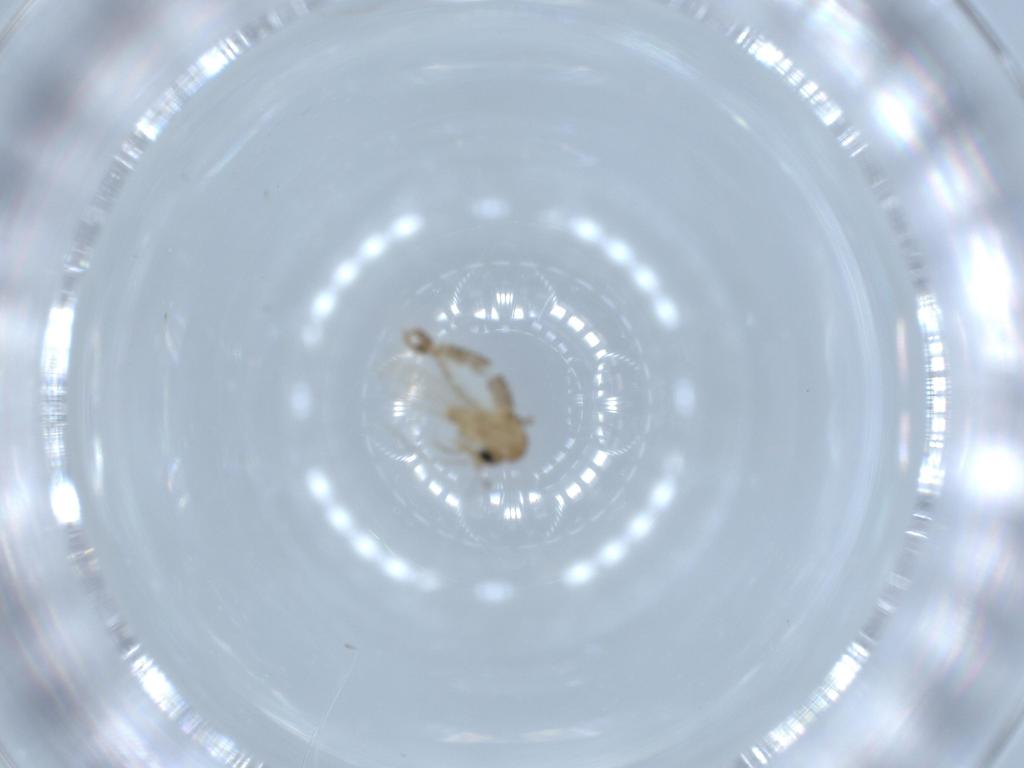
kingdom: Animalia
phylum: Arthropoda
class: Insecta
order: Diptera
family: Psychodidae
